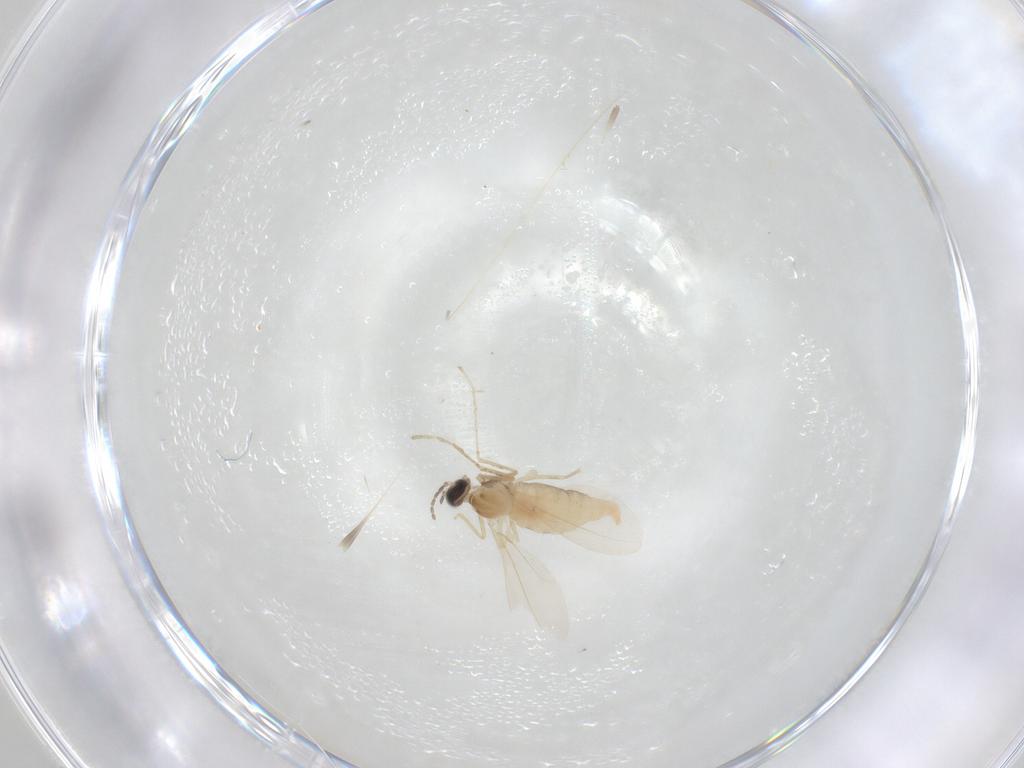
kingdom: Animalia
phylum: Arthropoda
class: Insecta
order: Diptera
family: Cecidomyiidae
